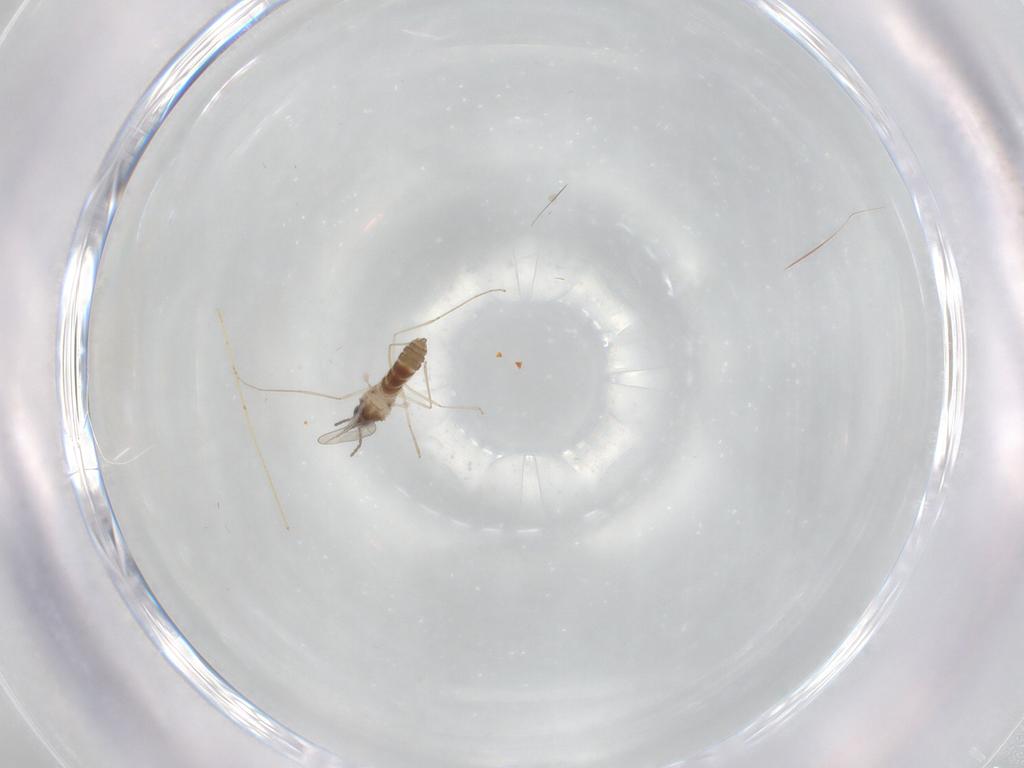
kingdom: Animalia
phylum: Arthropoda
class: Insecta
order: Diptera
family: Cecidomyiidae
